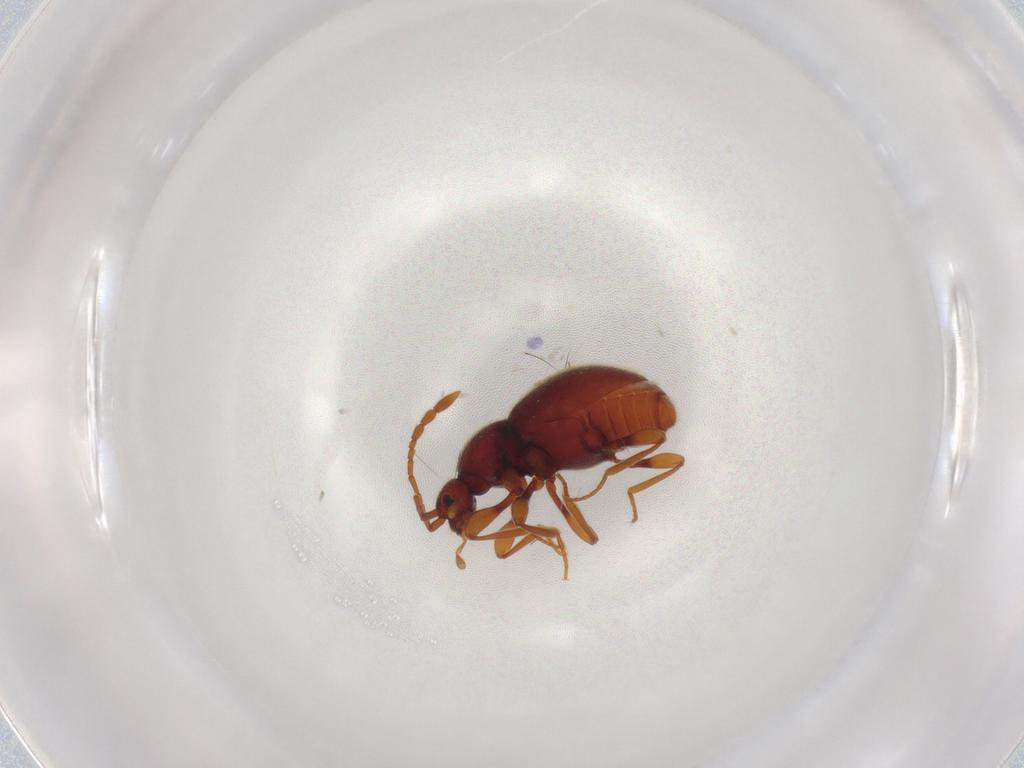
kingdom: Animalia
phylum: Arthropoda
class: Insecta
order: Coleoptera
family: Staphylinidae
